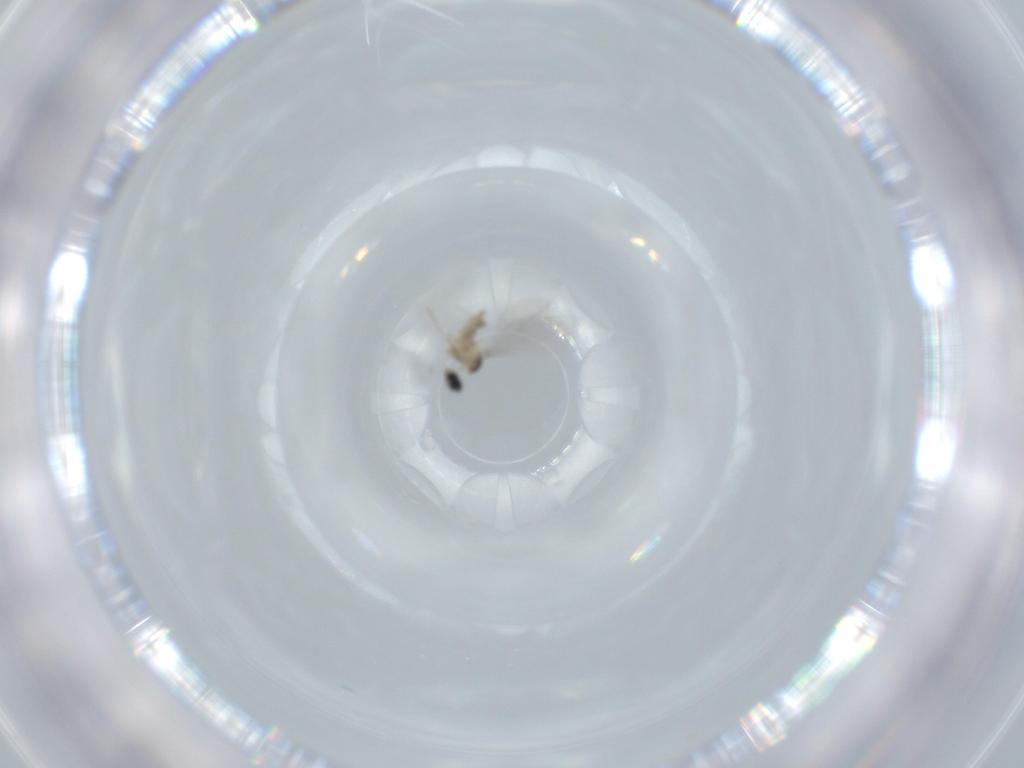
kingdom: Animalia
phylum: Arthropoda
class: Insecta
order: Diptera
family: Cecidomyiidae
